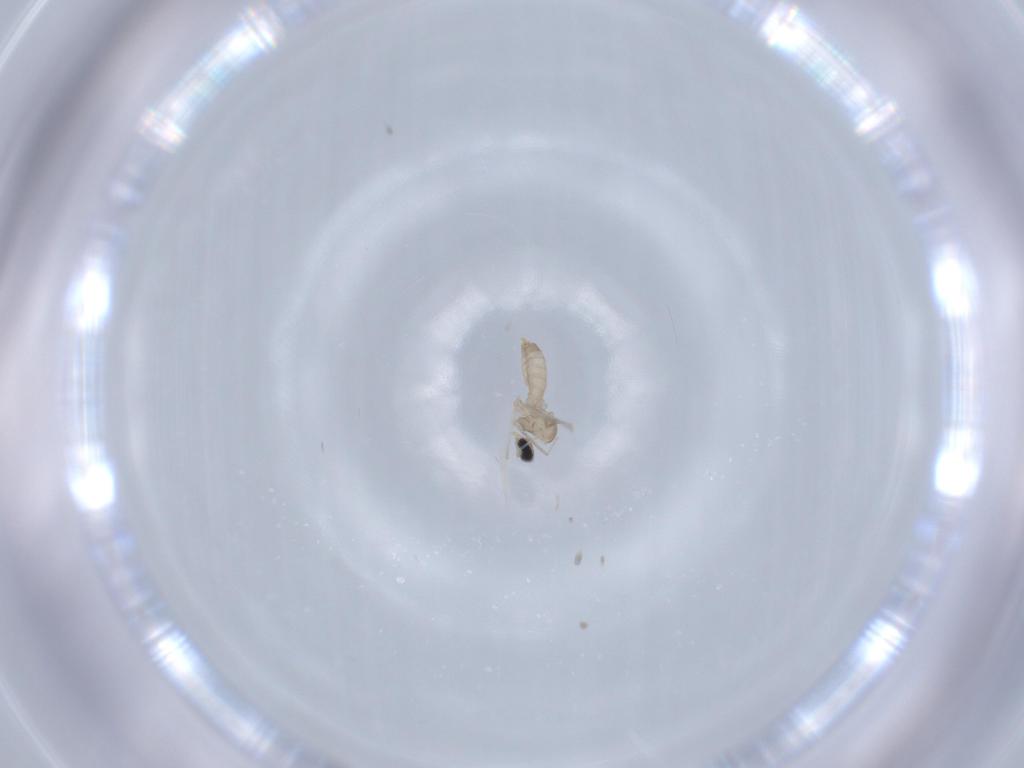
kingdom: Animalia
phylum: Arthropoda
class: Insecta
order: Diptera
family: Cecidomyiidae
